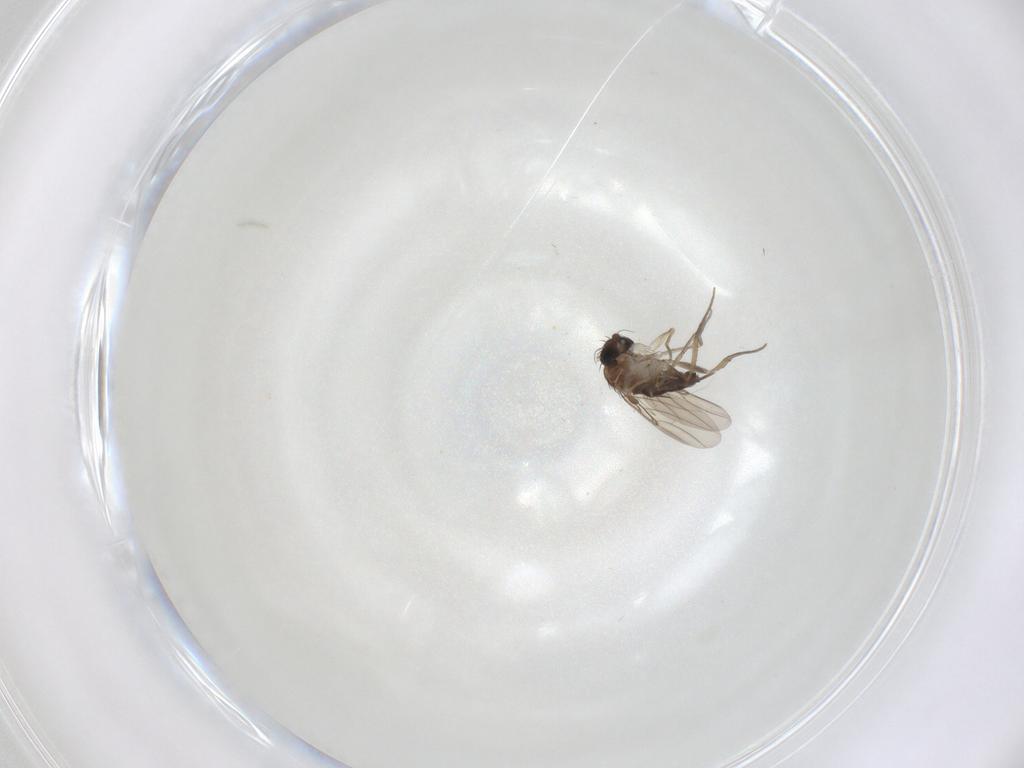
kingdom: Animalia
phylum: Arthropoda
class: Insecta
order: Diptera
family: Phoridae
